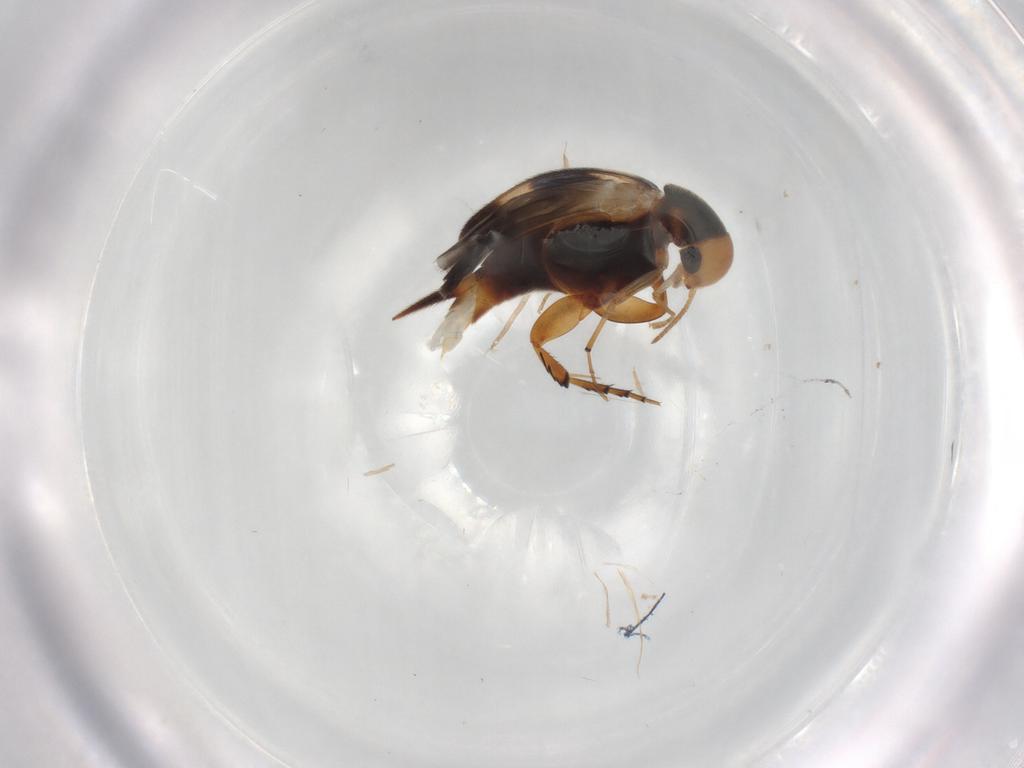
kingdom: Animalia
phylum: Arthropoda
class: Insecta
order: Coleoptera
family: Mordellidae
